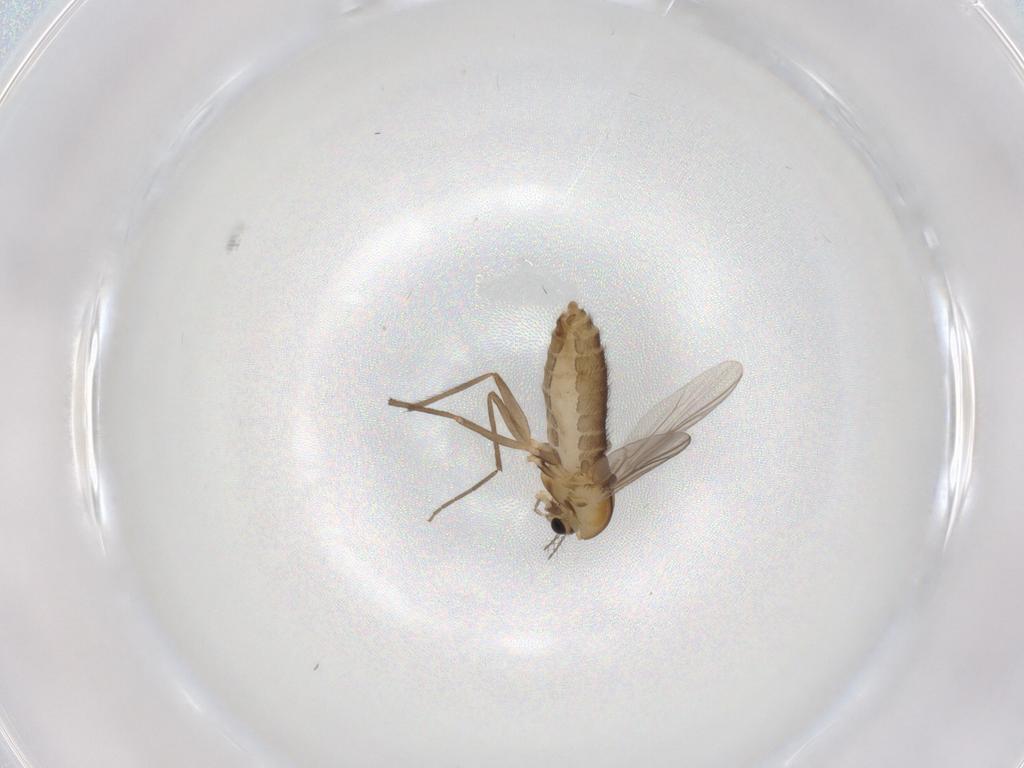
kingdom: Animalia
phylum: Arthropoda
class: Insecta
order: Diptera
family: Chironomidae
